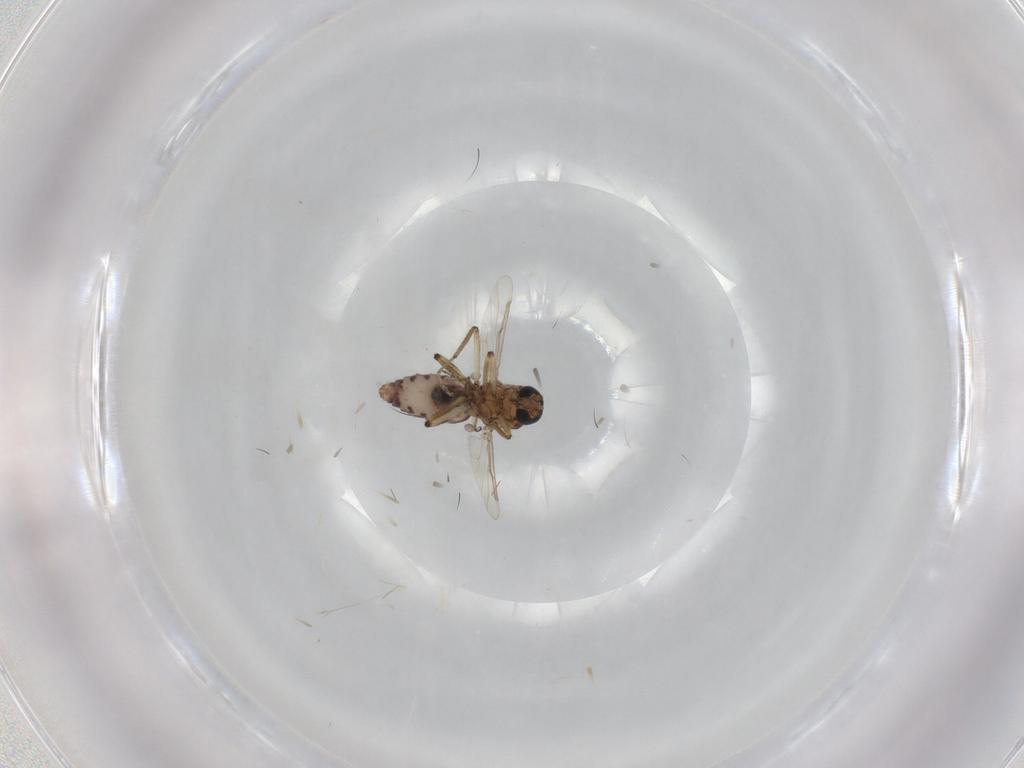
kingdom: Animalia
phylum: Arthropoda
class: Insecta
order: Diptera
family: Ceratopogonidae
